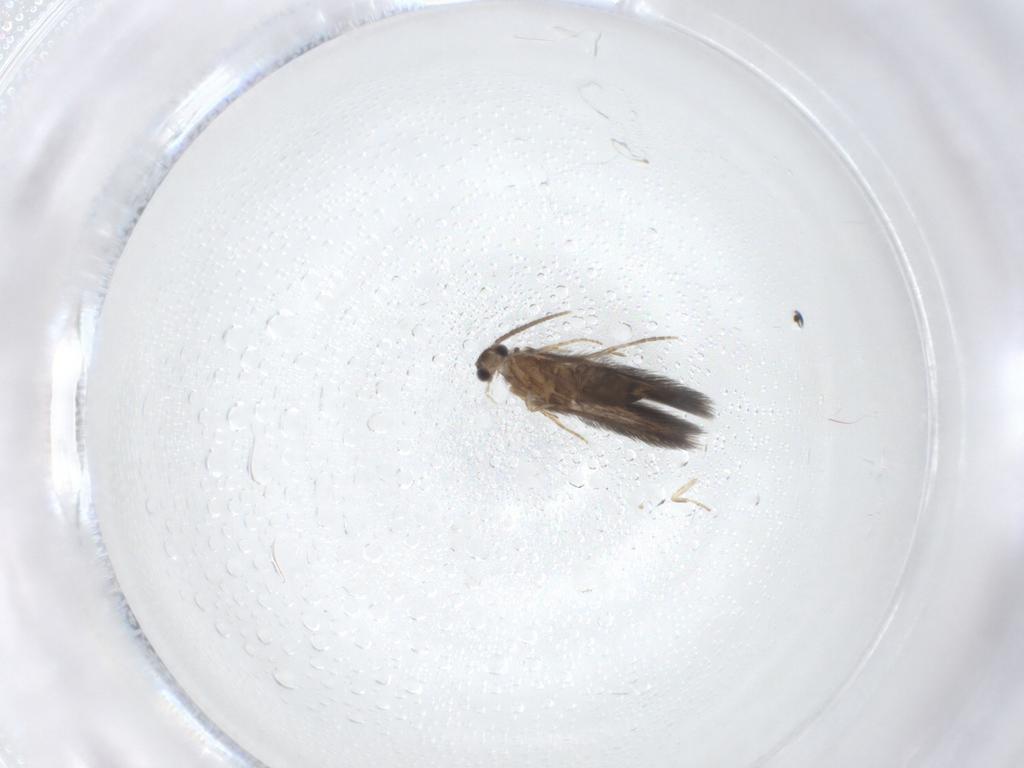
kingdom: Animalia
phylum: Arthropoda
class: Insecta
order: Trichoptera
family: Hydroptilidae
